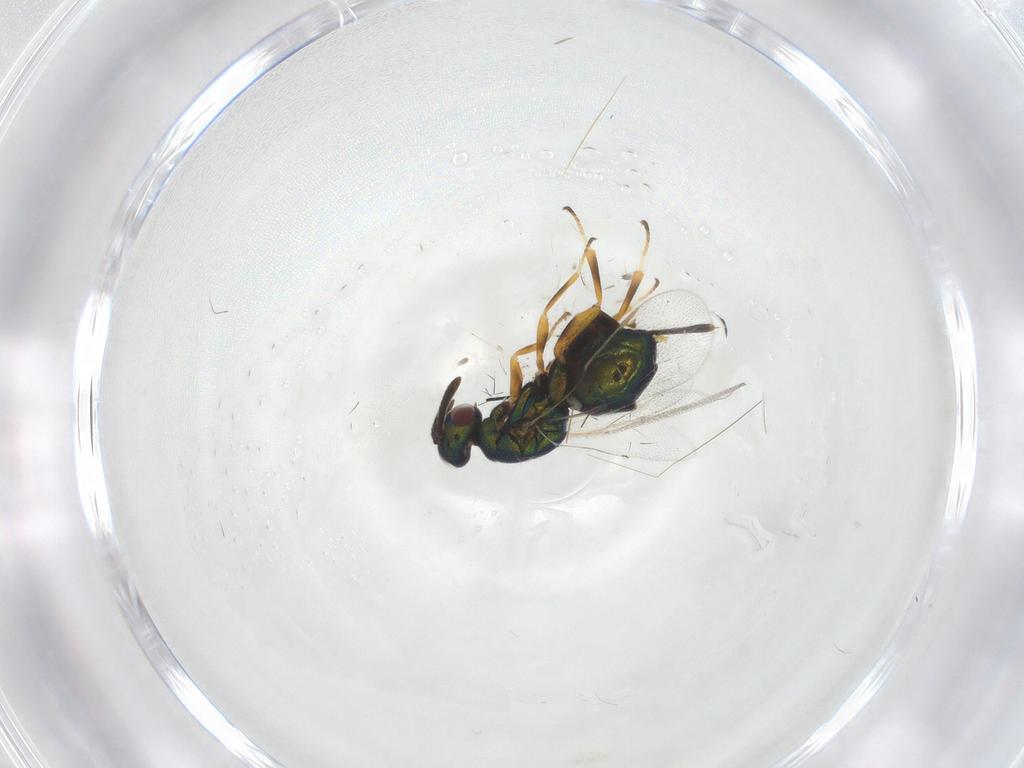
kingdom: Animalia
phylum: Arthropoda
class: Insecta
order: Hymenoptera
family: Torymidae
